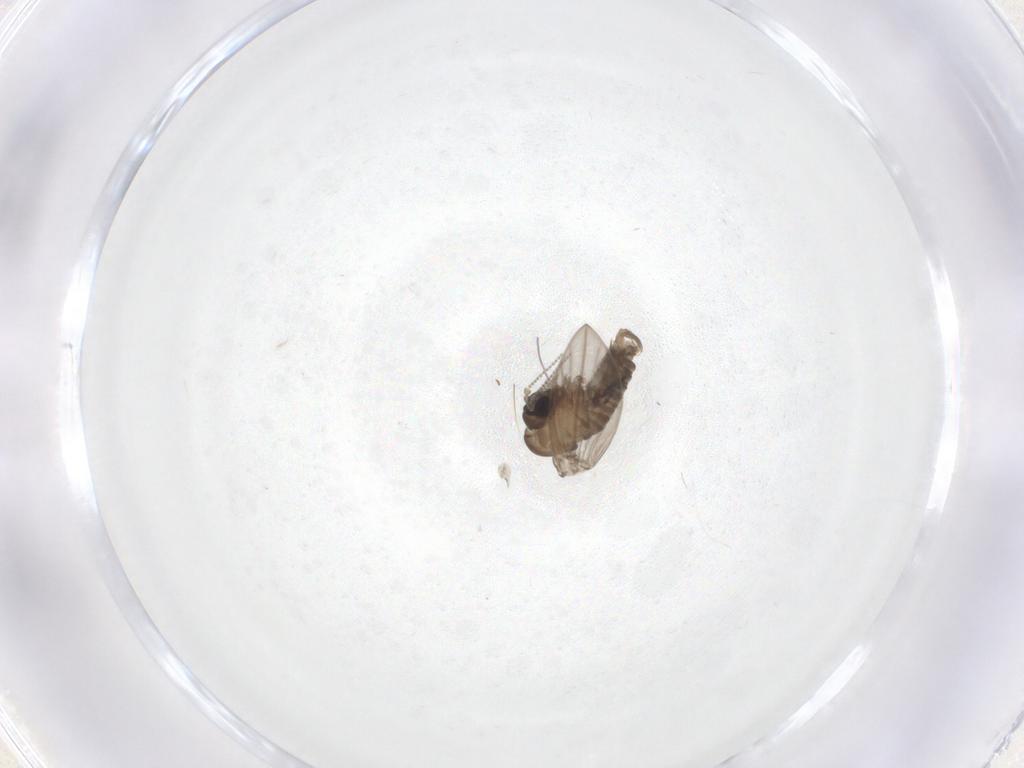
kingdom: Animalia
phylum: Arthropoda
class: Insecta
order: Diptera
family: Psychodidae
